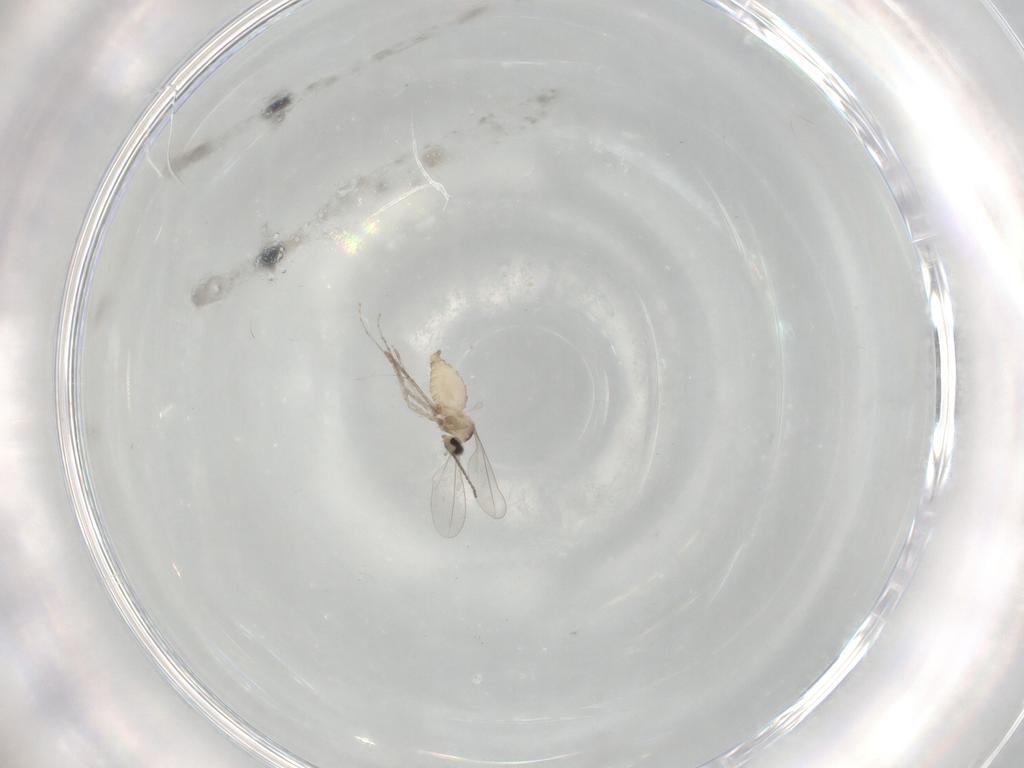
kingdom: Animalia
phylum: Arthropoda
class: Insecta
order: Diptera
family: Cecidomyiidae
